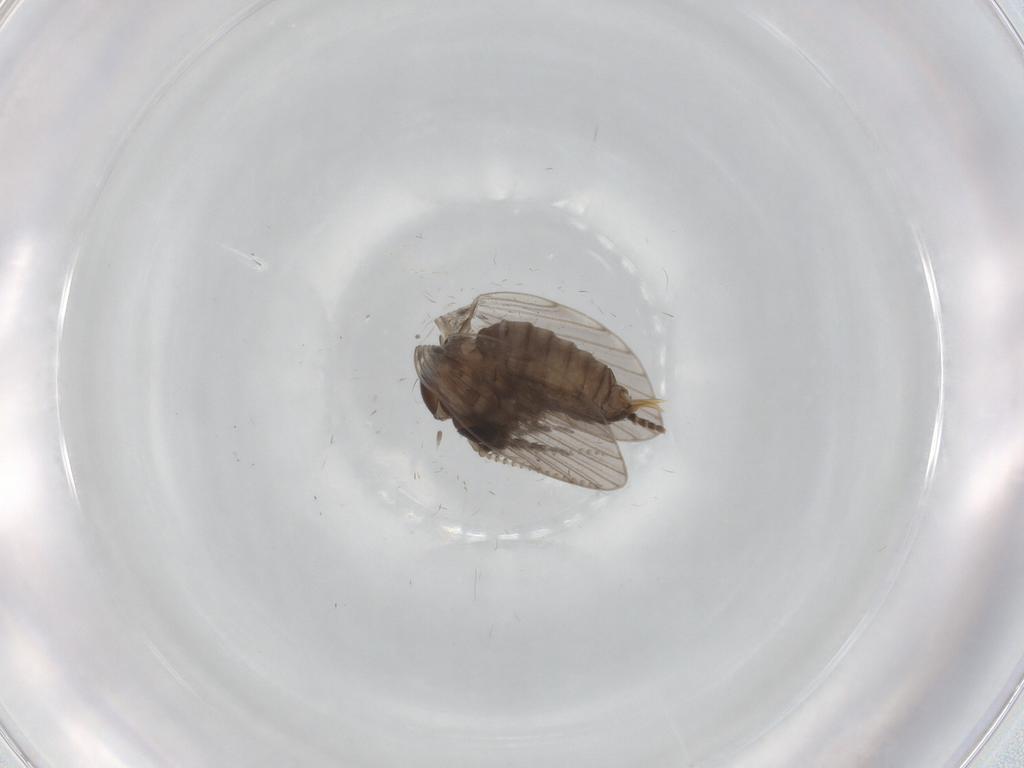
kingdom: Animalia
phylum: Arthropoda
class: Insecta
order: Diptera
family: Psychodidae
